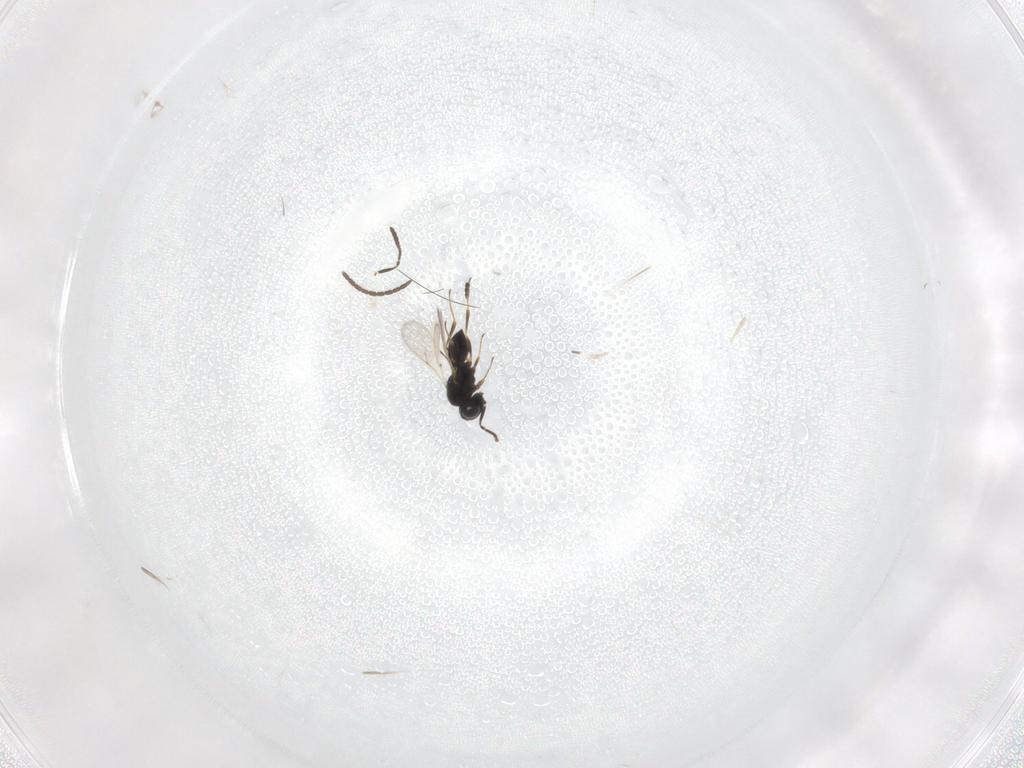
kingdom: Animalia
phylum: Arthropoda
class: Insecta
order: Hymenoptera
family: Scelionidae
